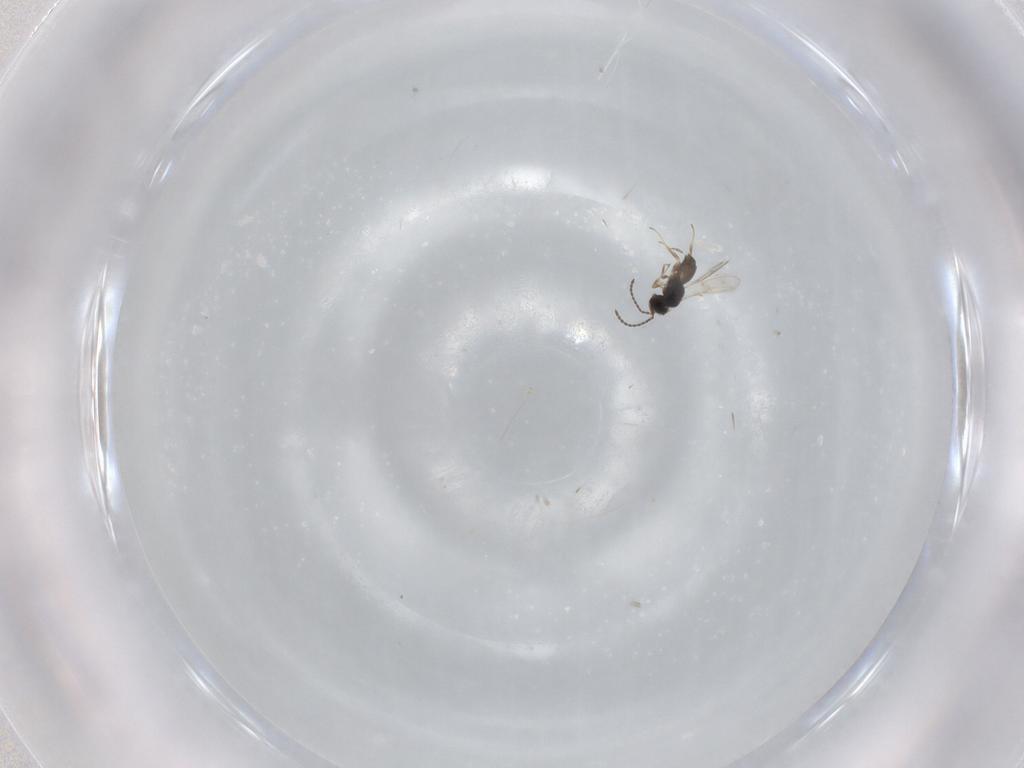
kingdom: Animalia
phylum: Arthropoda
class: Insecta
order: Hymenoptera
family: Scelionidae
